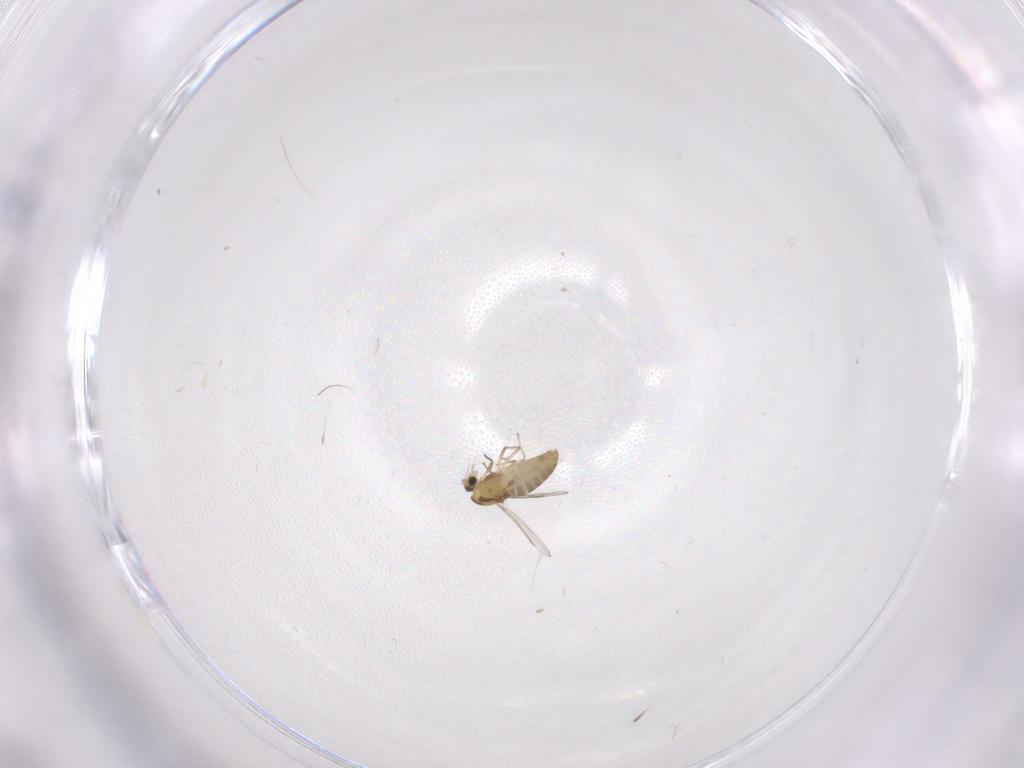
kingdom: Animalia
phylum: Arthropoda
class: Insecta
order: Diptera
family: Chironomidae
